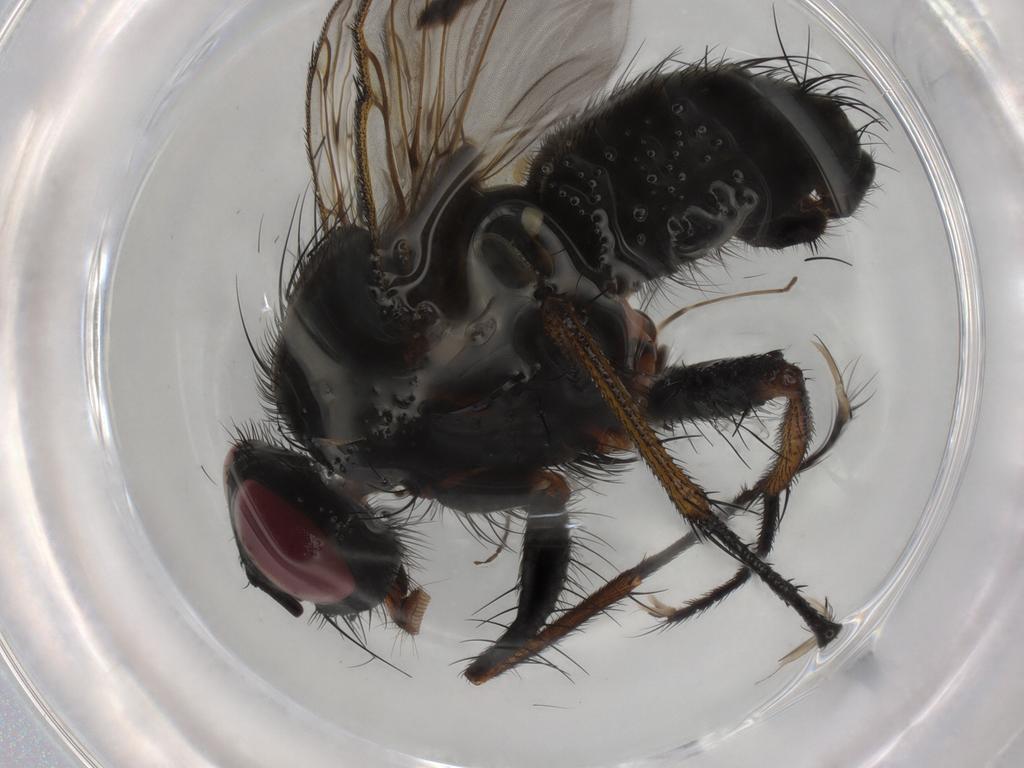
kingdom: Animalia
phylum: Arthropoda
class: Insecta
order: Diptera
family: Muscidae
